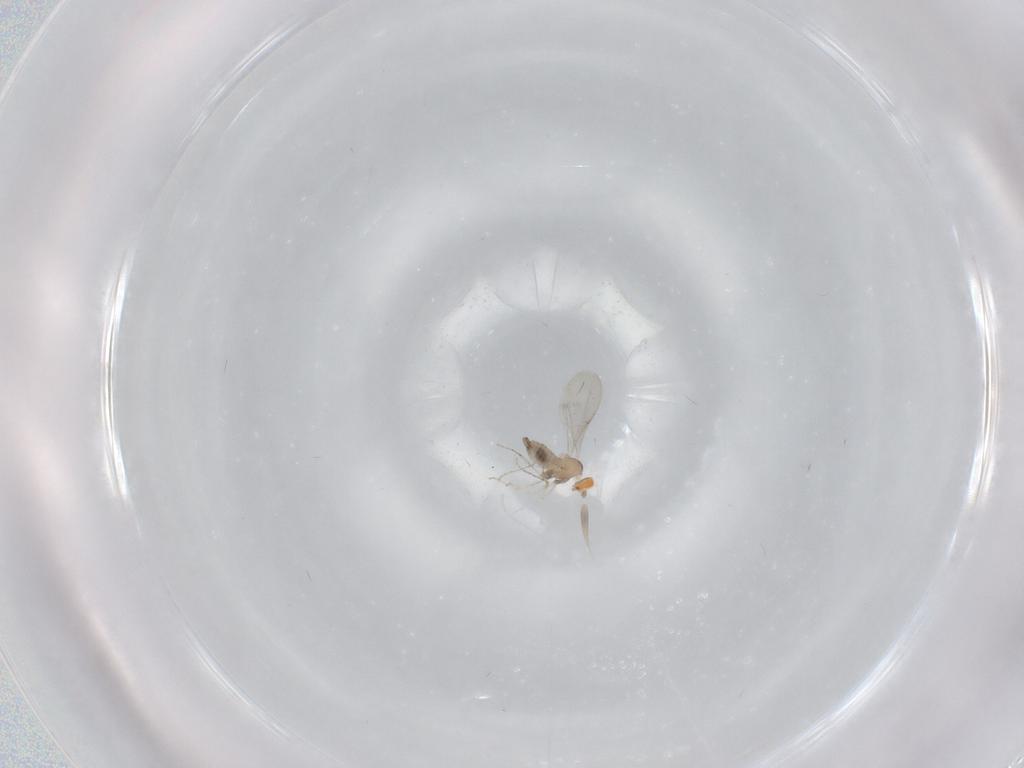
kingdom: Animalia
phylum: Arthropoda
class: Insecta
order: Diptera
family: Cecidomyiidae
